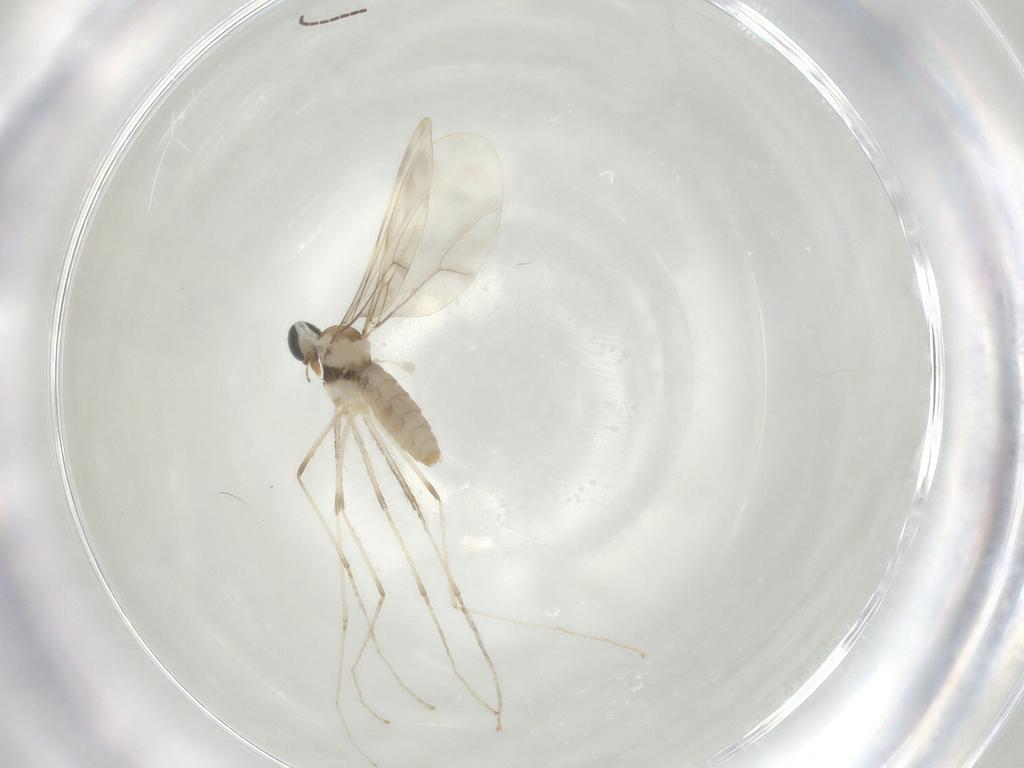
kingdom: Animalia
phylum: Arthropoda
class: Insecta
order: Diptera
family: Cecidomyiidae
